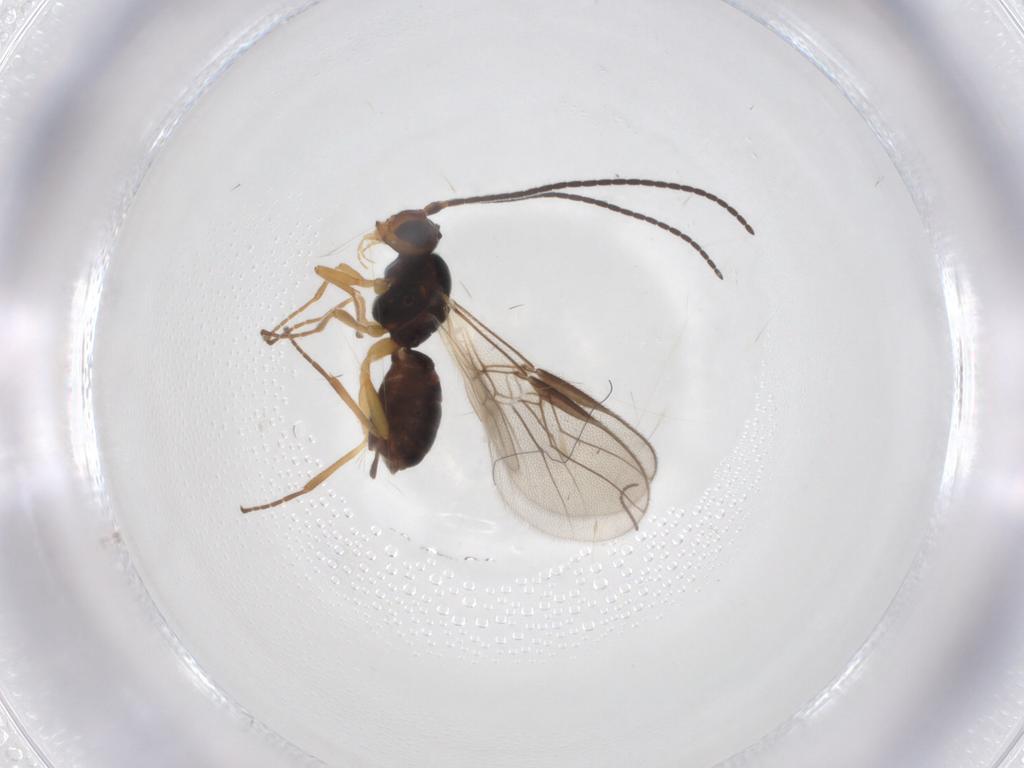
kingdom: Animalia
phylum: Arthropoda
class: Insecta
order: Hymenoptera
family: Braconidae
